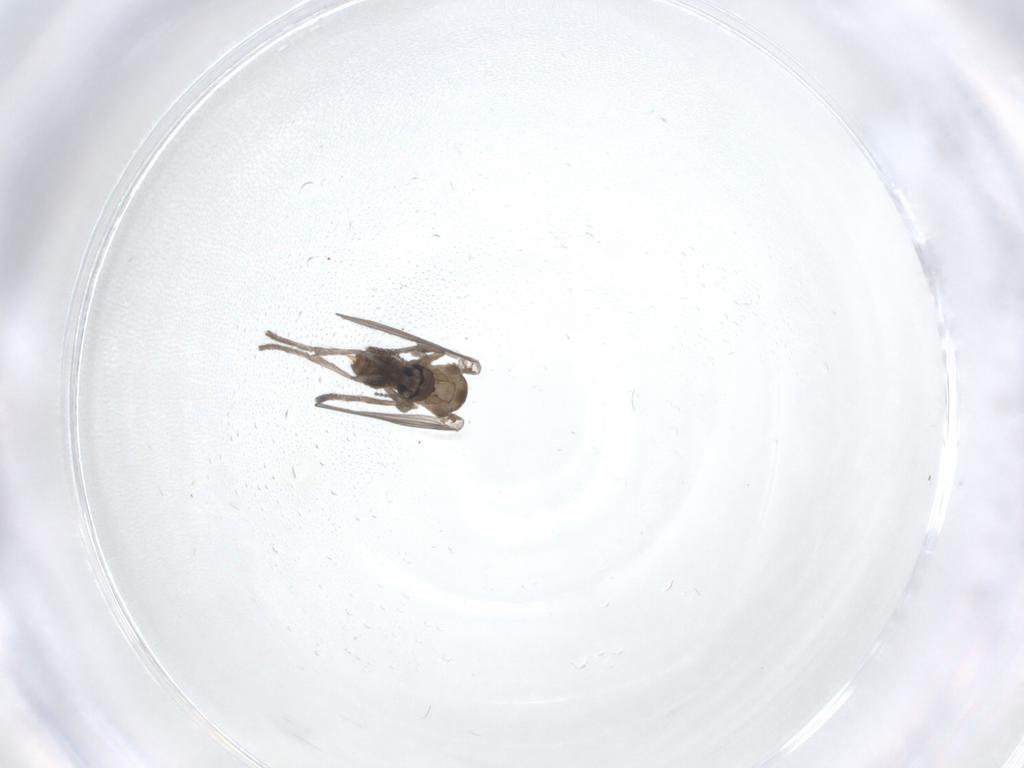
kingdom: Animalia
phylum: Arthropoda
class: Insecta
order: Diptera
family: Psychodidae
